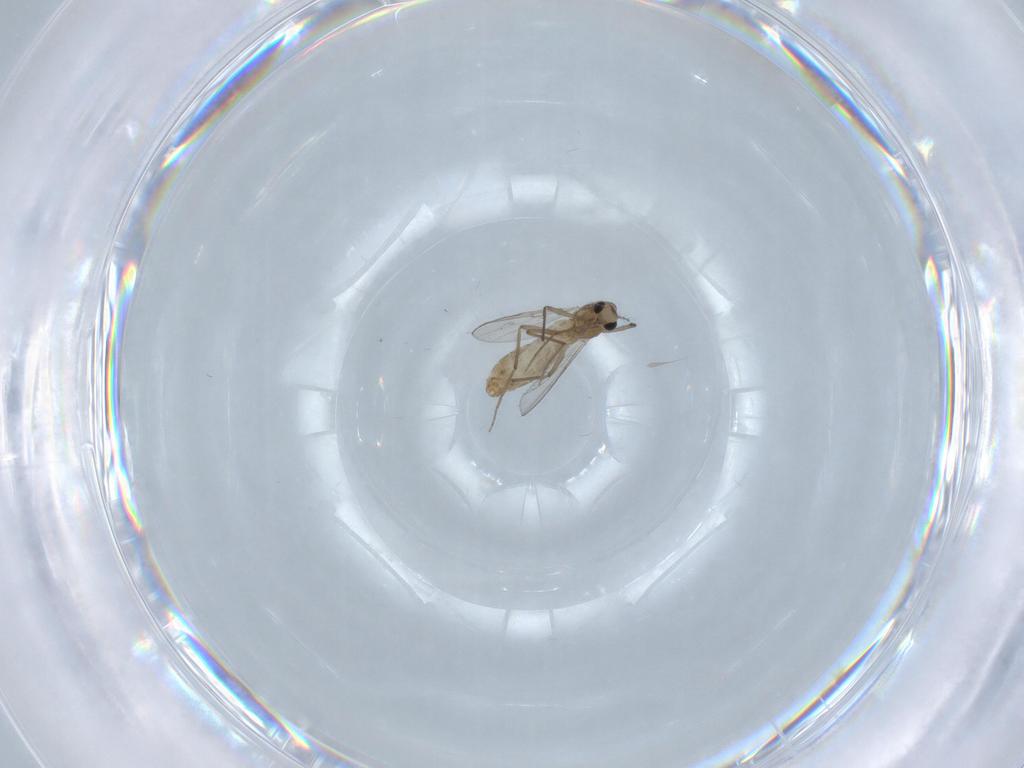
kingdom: Animalia
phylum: Arthropoda
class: Insecta
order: Diptera
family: Chironomidae
